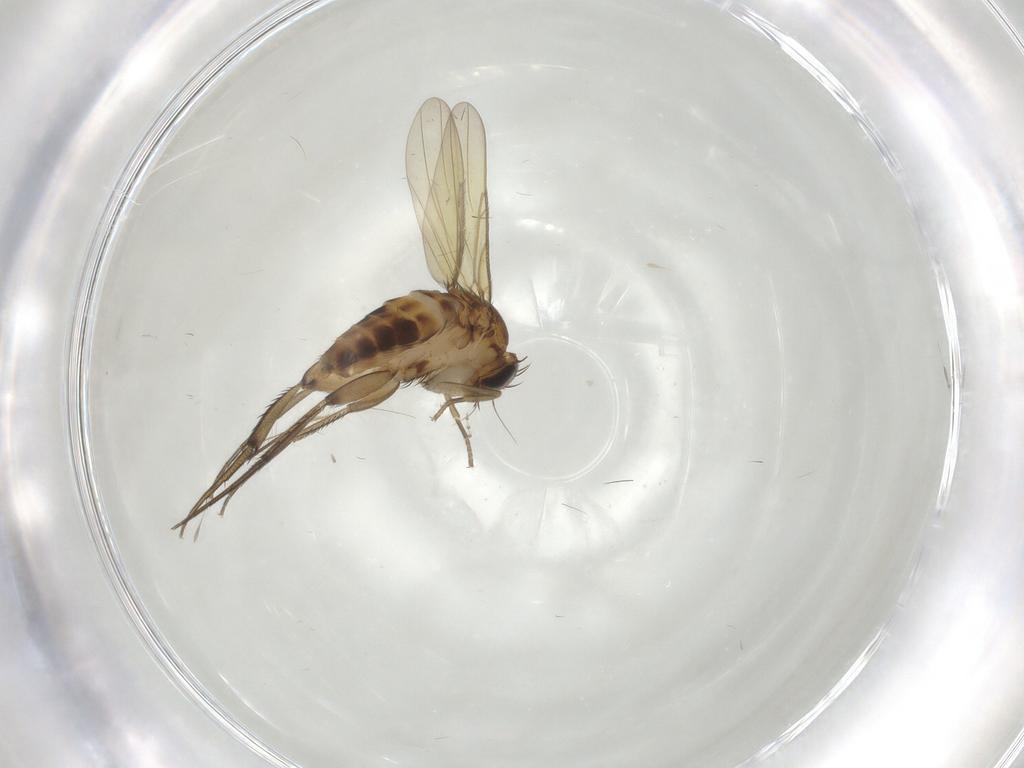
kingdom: Animalia
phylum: Arthropoda
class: Insecta
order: Diptera
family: Phoridae
